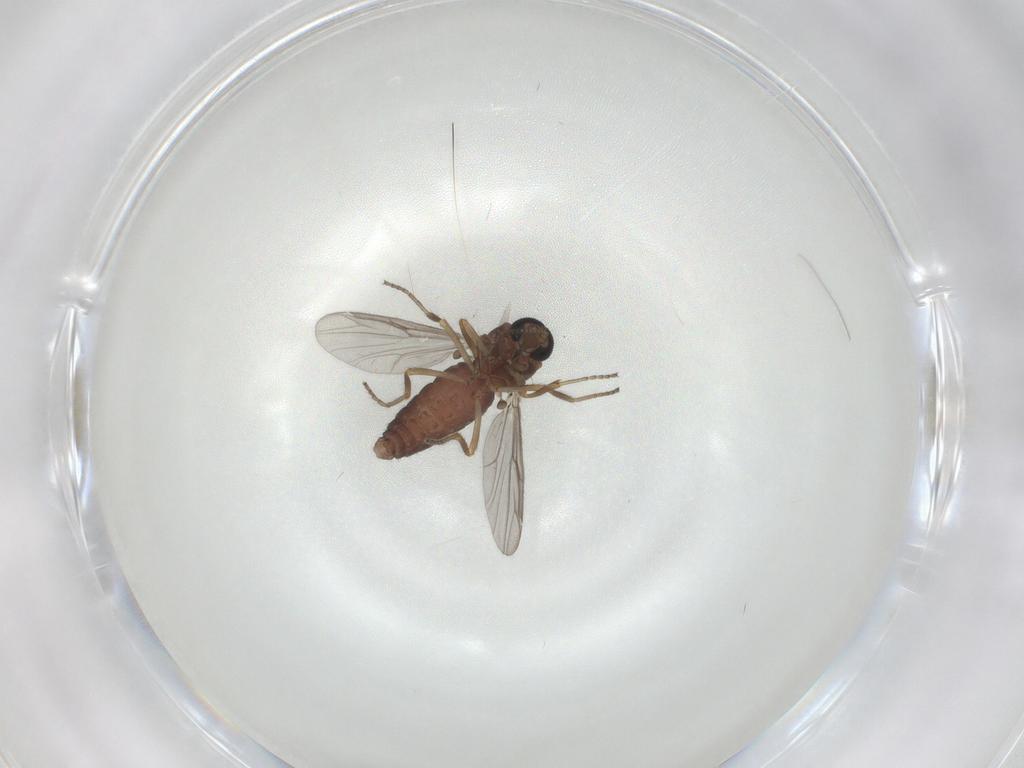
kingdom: Animalia
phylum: Arthropoda
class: Insecta
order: Diptera
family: Ceratopogonidae
